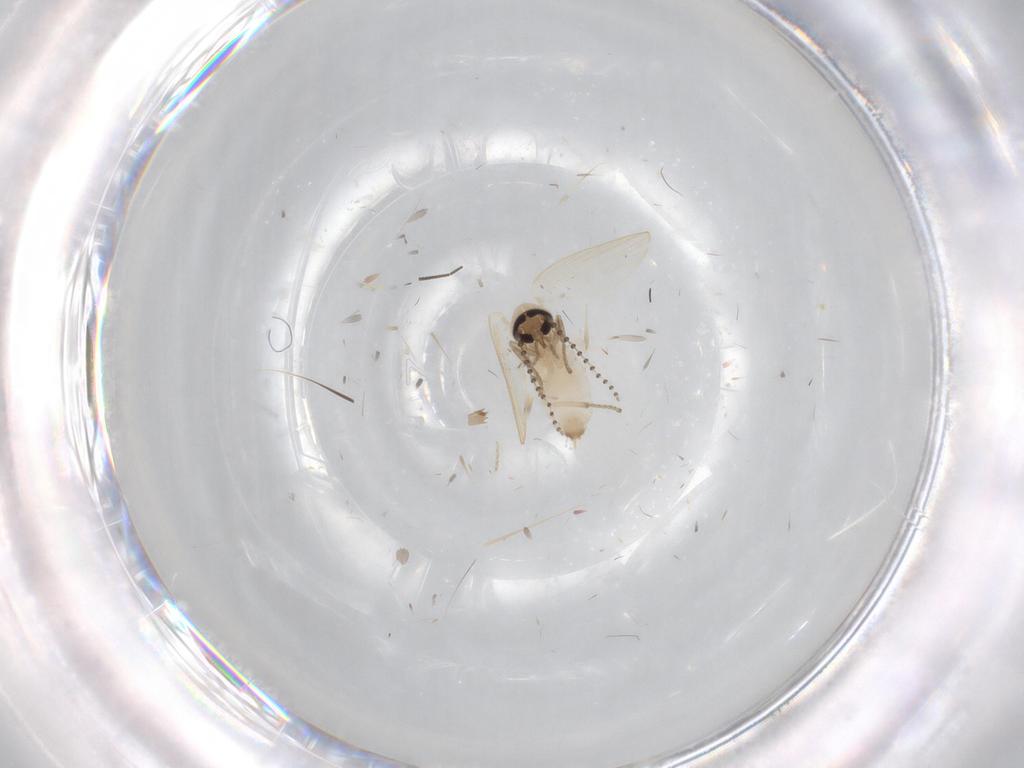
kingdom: Animalia
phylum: Arthropoda
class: Insecta
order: Diptera
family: Psychodidae
